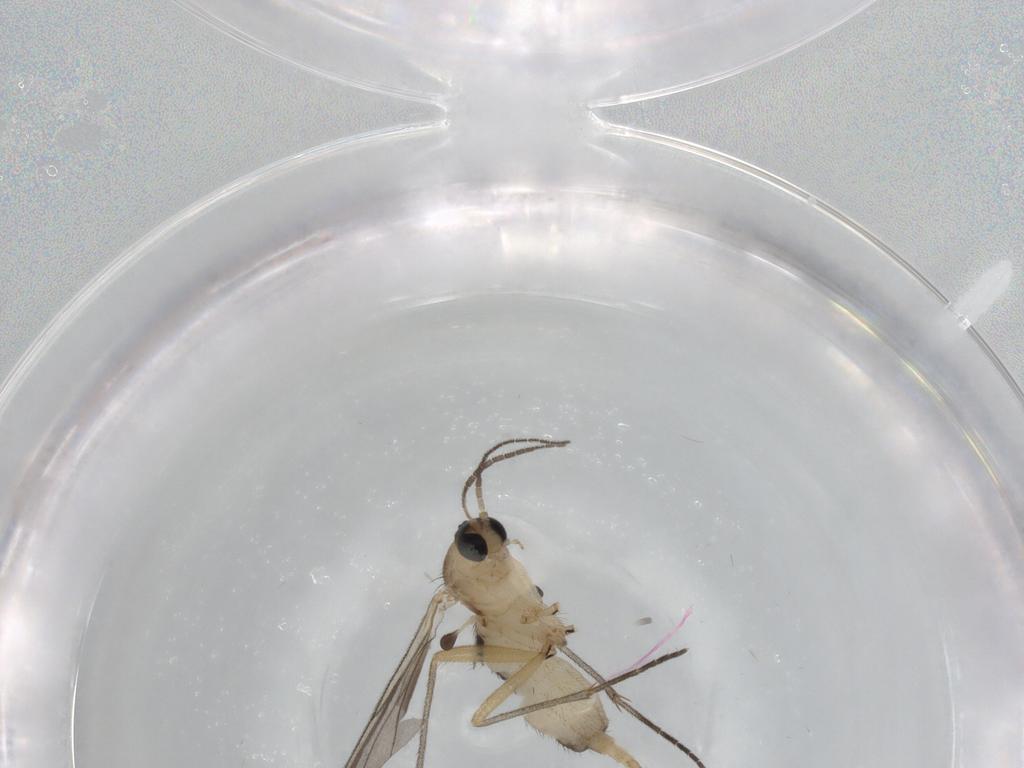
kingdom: Animalia
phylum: Arthropoda
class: Insecta
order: Diptera
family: Sciaridae
